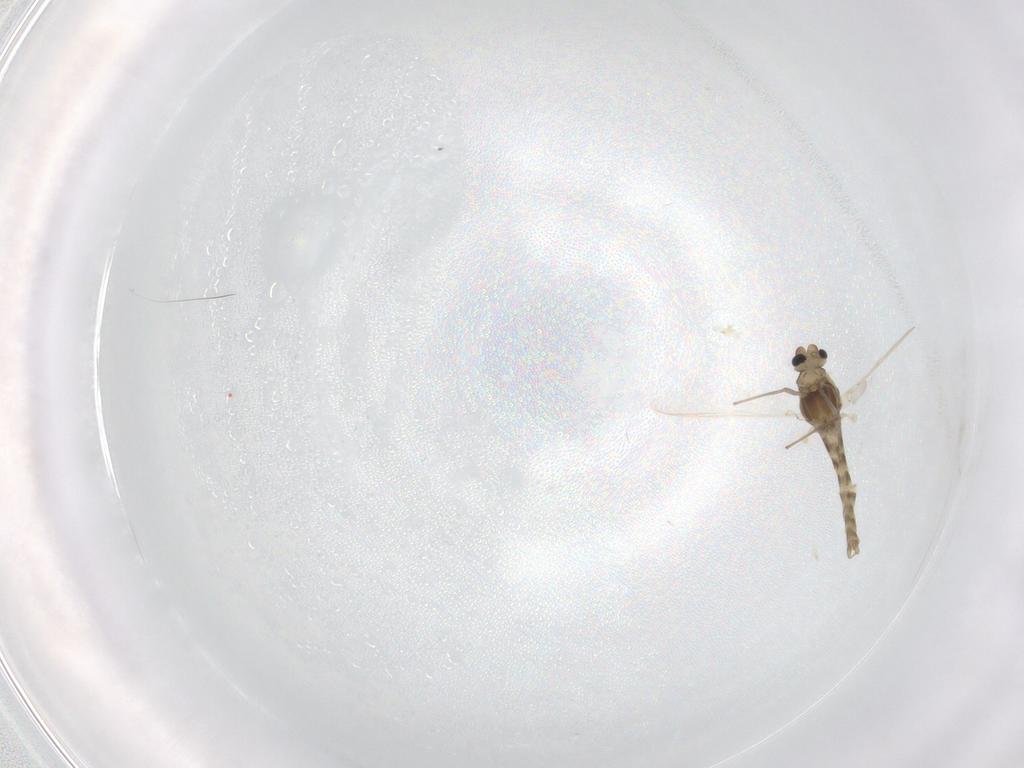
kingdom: Animalia
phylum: Arthropoda
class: Insecta
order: Diptera
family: Chironomidae
